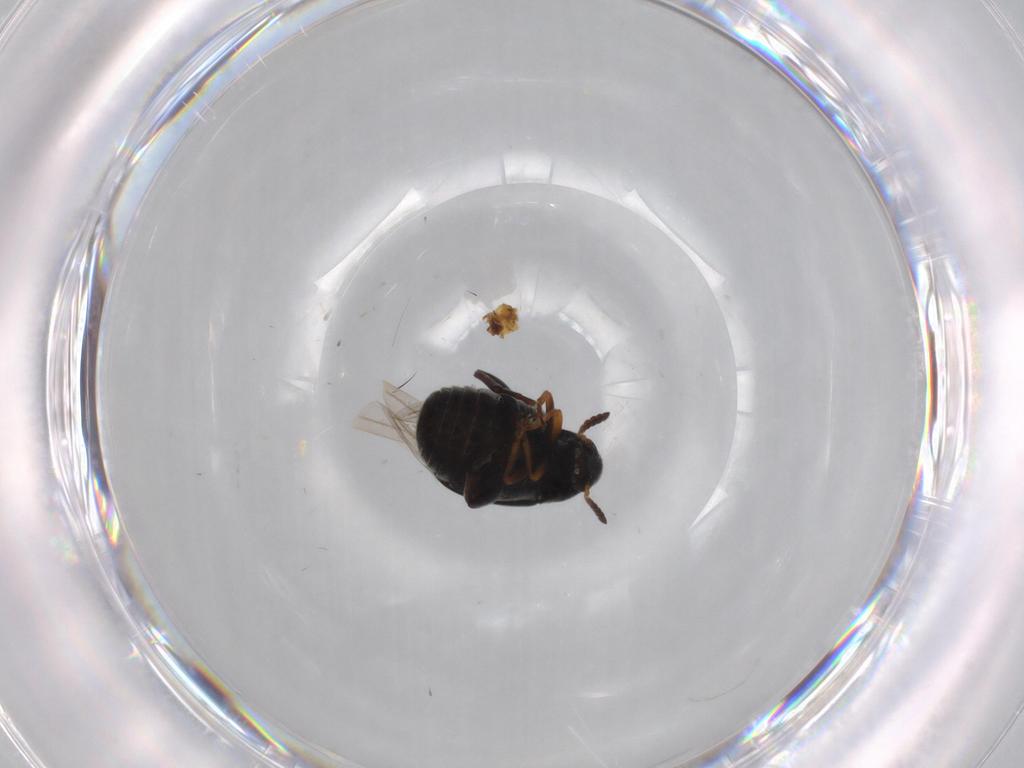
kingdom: Animalia
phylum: Arthropoda
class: Insecta
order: Coleoptera
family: Chrysomelidae
